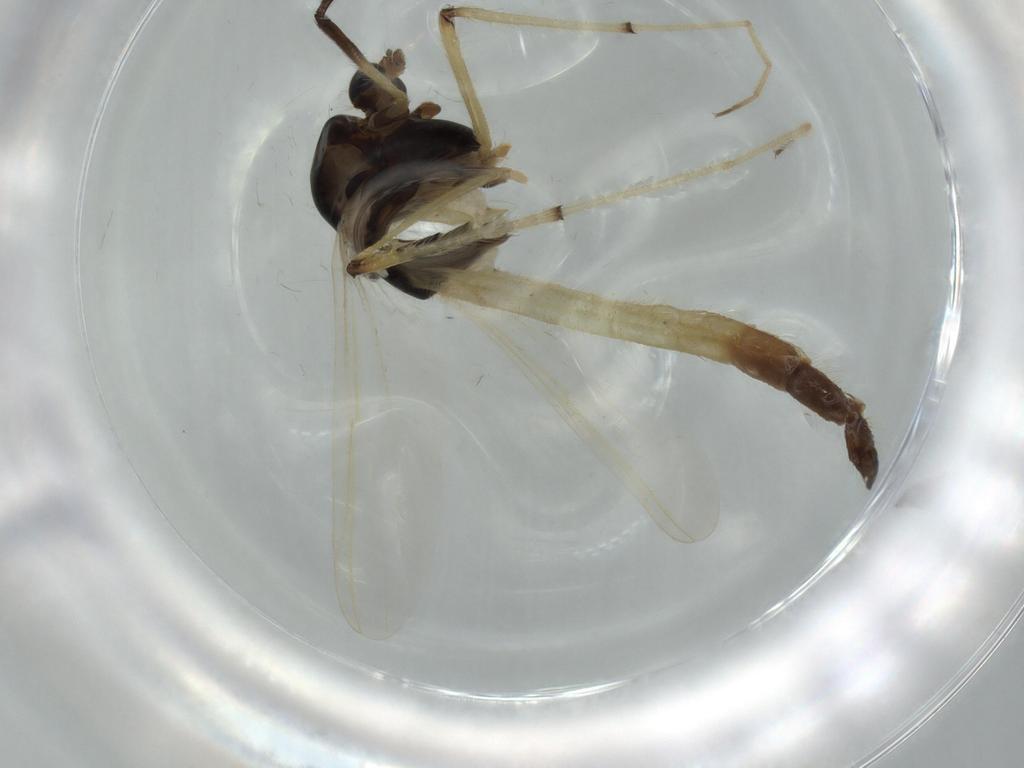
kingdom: Animalia
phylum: Arthropoda
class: Insecta
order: Diptera
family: Chironomidae
